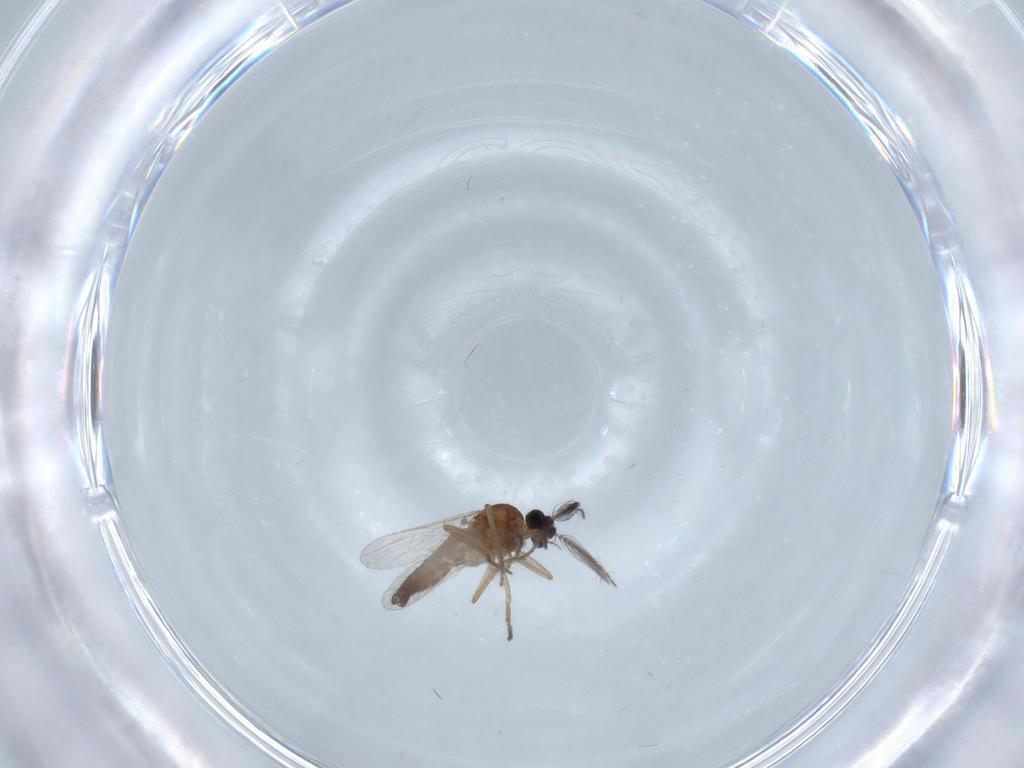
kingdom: Animalia
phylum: Arthropoda
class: Insecta
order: Diptera
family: Ceratopogonidae
